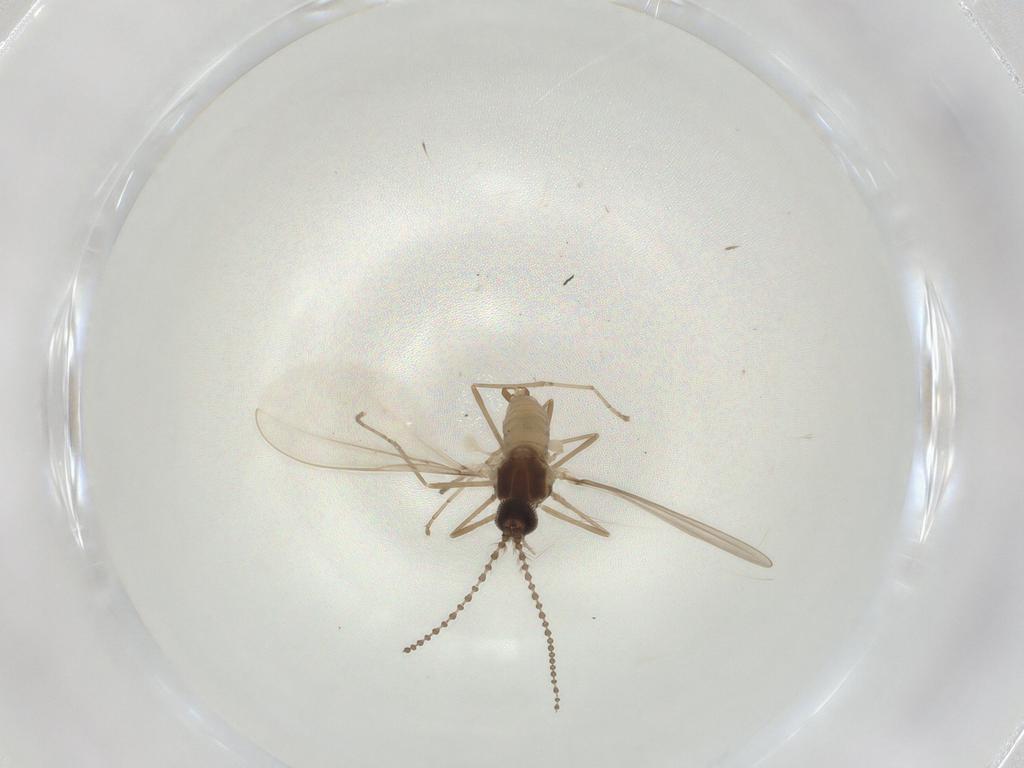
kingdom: Animalia
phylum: Arthropoda
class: Insecta
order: Diptera
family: Cecidomyiidae
